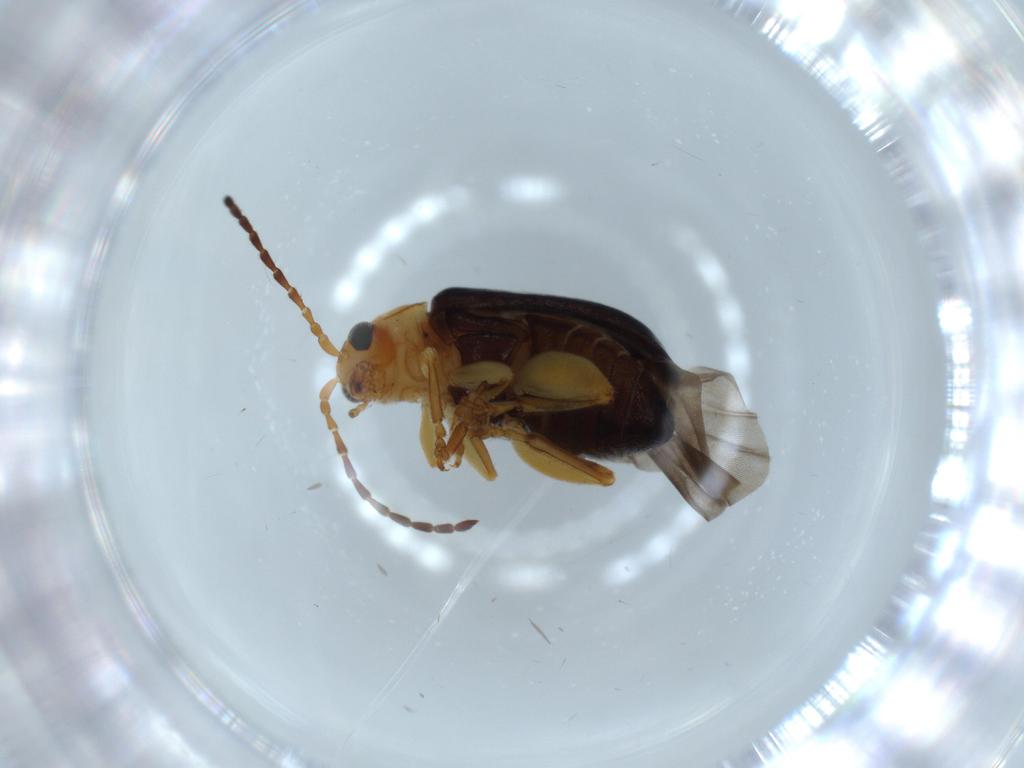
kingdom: Animalia
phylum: Arthropoda
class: Insecta
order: Coleoptera
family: Chrysomelidae
